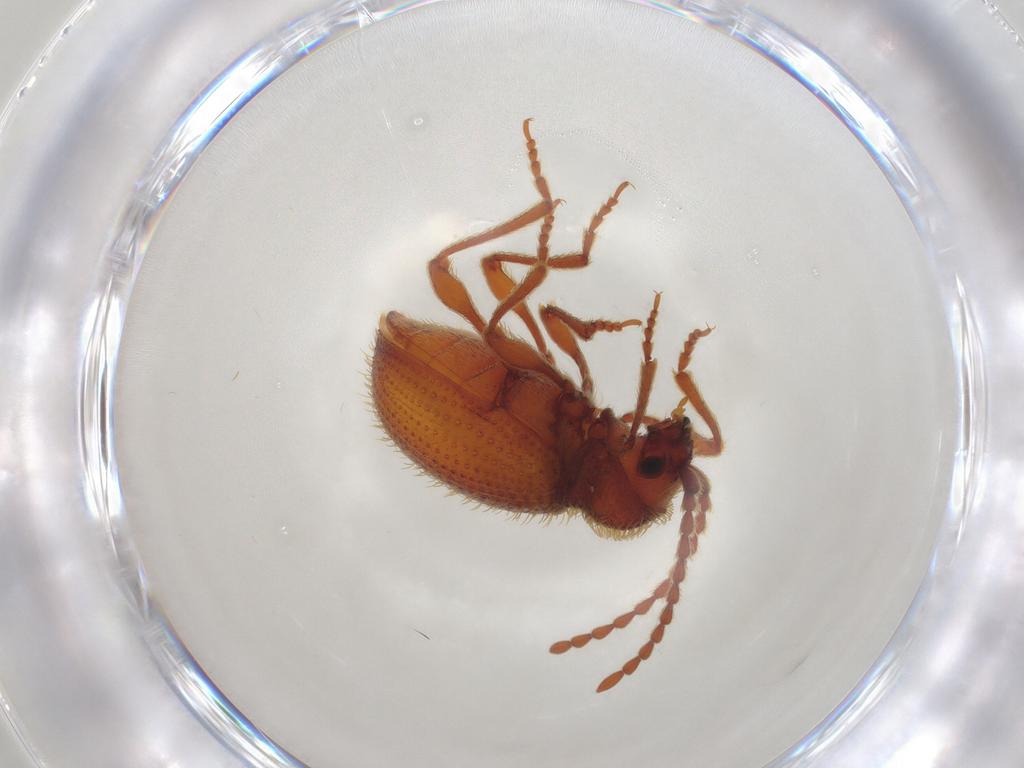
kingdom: Animalia
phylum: Arthropoda
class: Insecta
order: Coleoptera
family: Ptinidae
